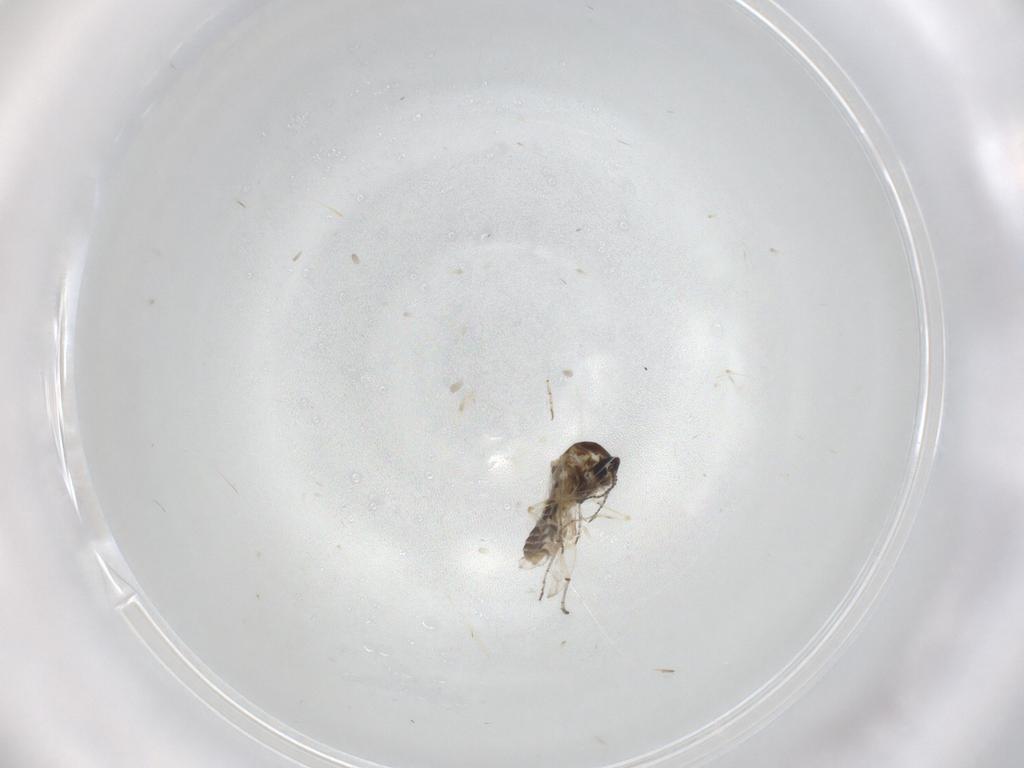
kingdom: Animalia
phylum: Arthropoda
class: Insecta
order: Diptera
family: Ceratopogonidae
